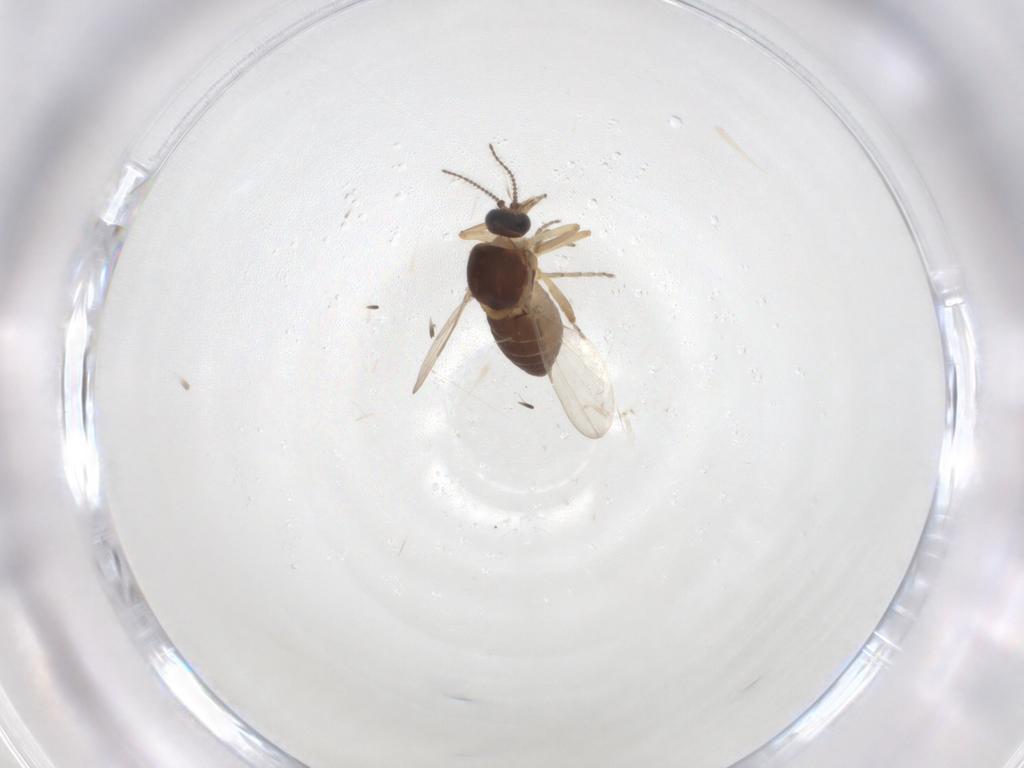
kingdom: Animalia
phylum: Arthropoda
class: Insecta
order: Diptera
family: Ceratopogonidae
